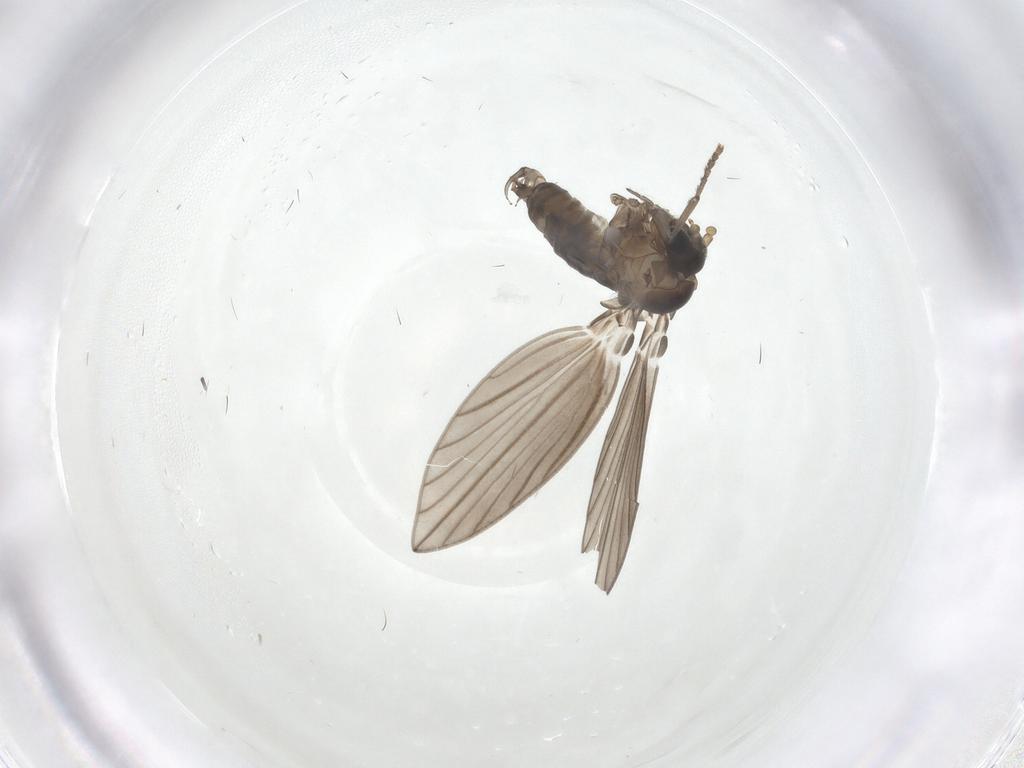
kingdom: Animalia
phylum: Arthropoda
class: Insecta
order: Diptera
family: Psychodidae
